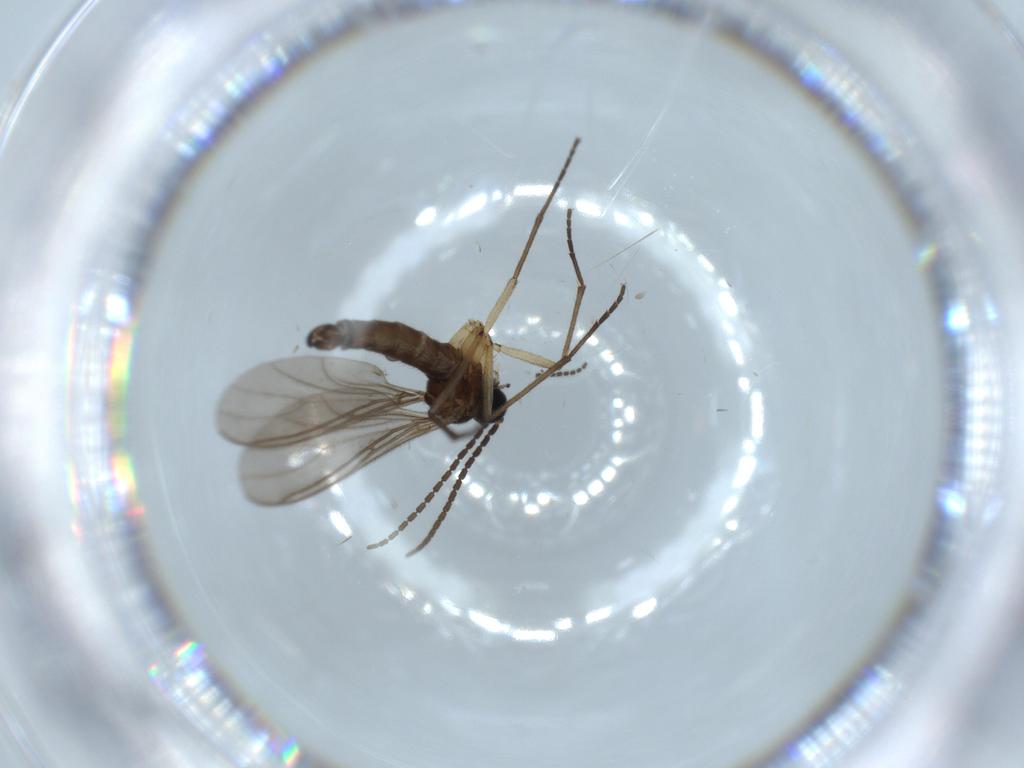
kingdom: Animalia
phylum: Arthropoda
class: Insecta
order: Diptera
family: Sciaridae
